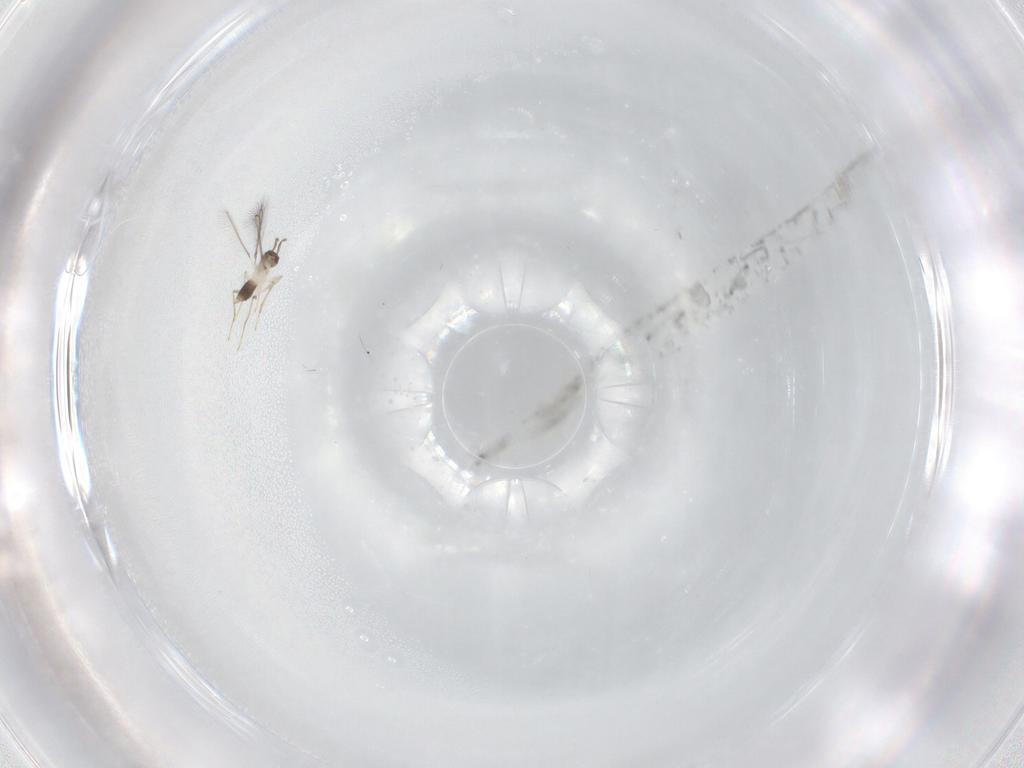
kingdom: Animalia
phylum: Arthropoda
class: Insecta
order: Hymenoptera
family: Mymaridae
